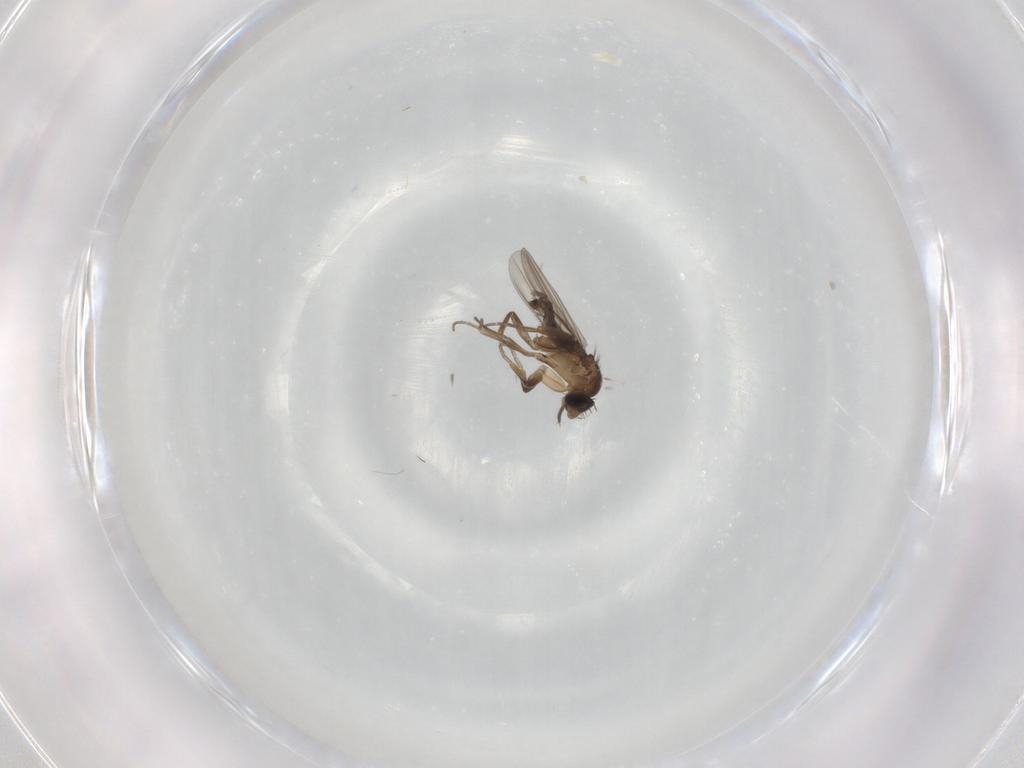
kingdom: Animalia
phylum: Arthropoda
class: Insecta
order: Diptera
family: Phoridae
